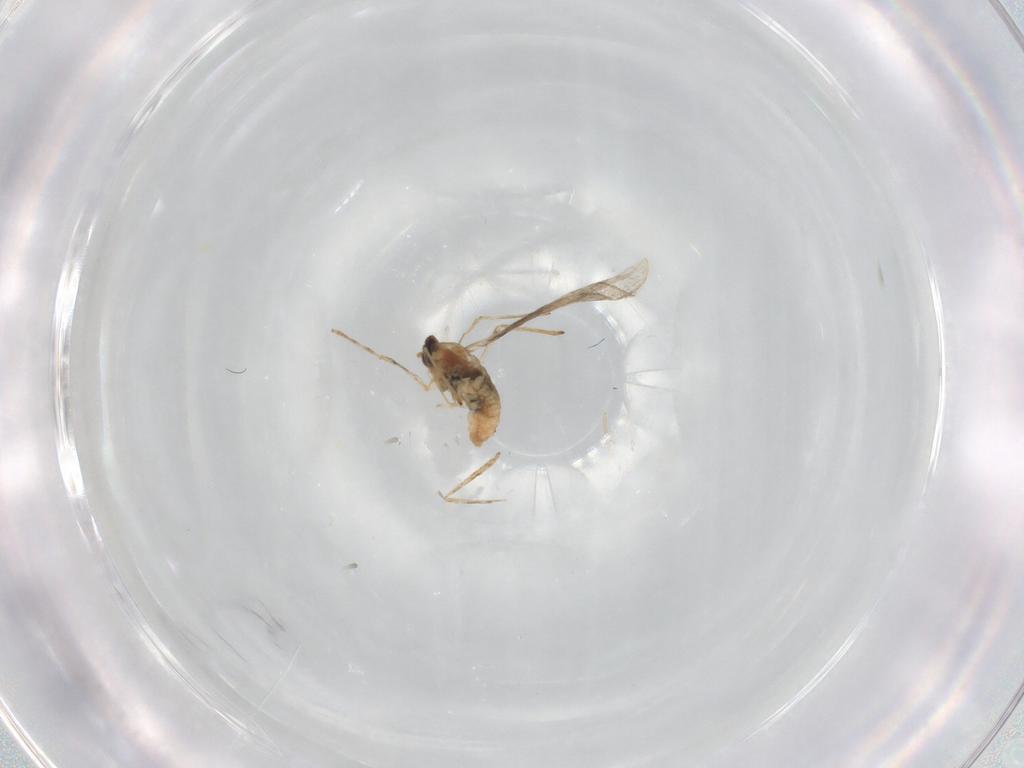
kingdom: Animalia
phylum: Arthropoda
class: Insecta
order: Diptera
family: Cecidomyiidae
